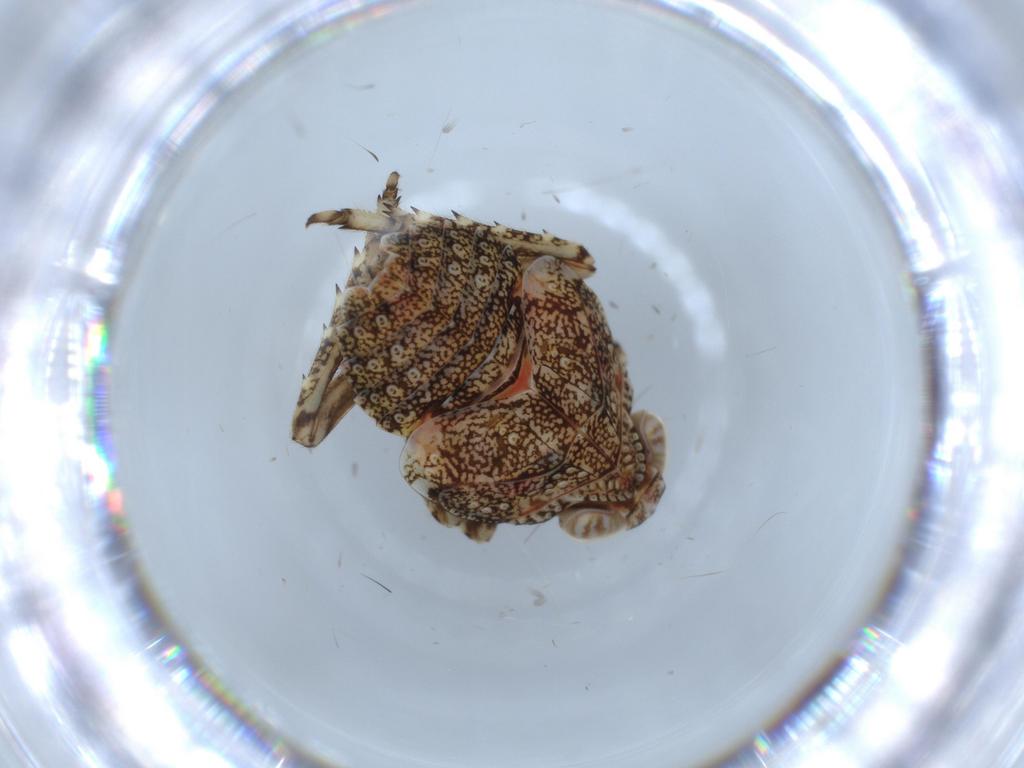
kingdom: Animalia
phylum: Arthropoda
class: Insecta
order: Hemiptera
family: Issidae
